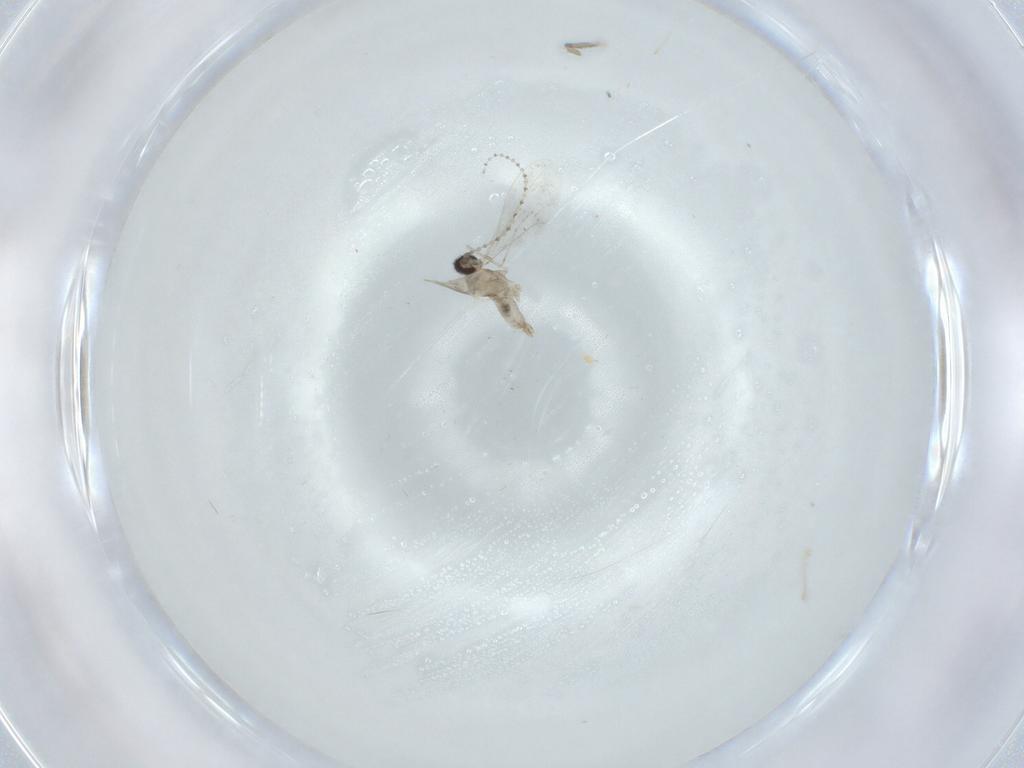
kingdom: Animalia
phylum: Arthropoda
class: Insecta
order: Diptera
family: Cecidomyiidae
